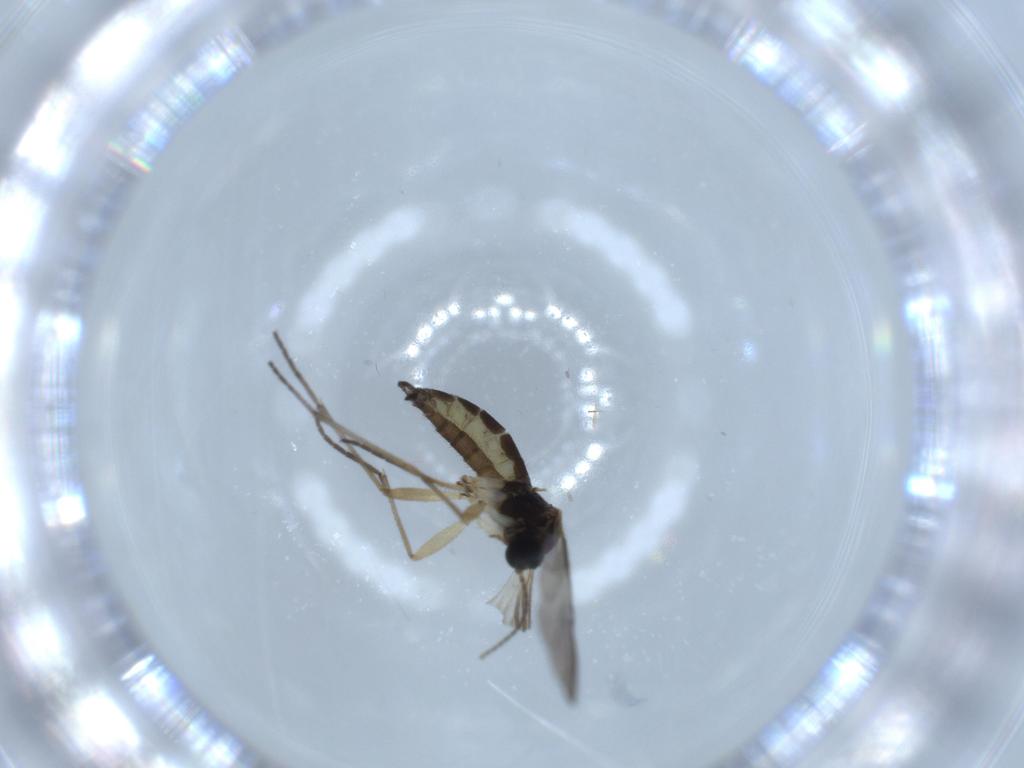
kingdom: Animalia
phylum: Arthropoda
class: Insecta
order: Diptera
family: Sciaridae
